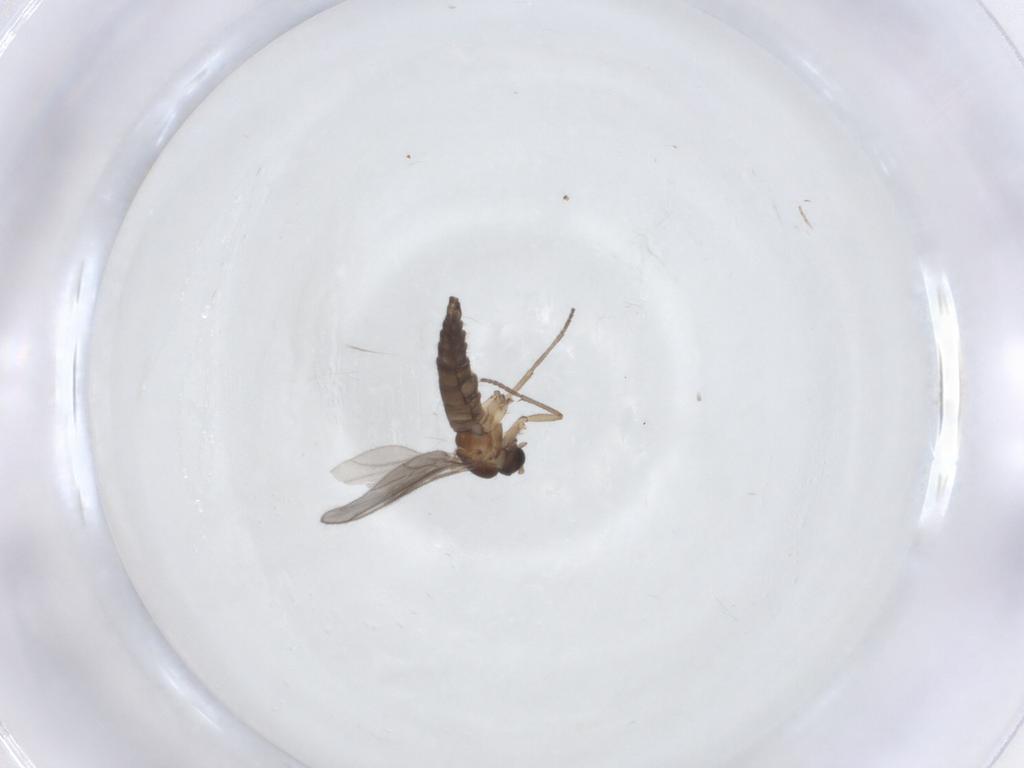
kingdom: Animalia
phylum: Arthropoda
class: Insecta
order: Diptera
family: Ceratopogonidae
